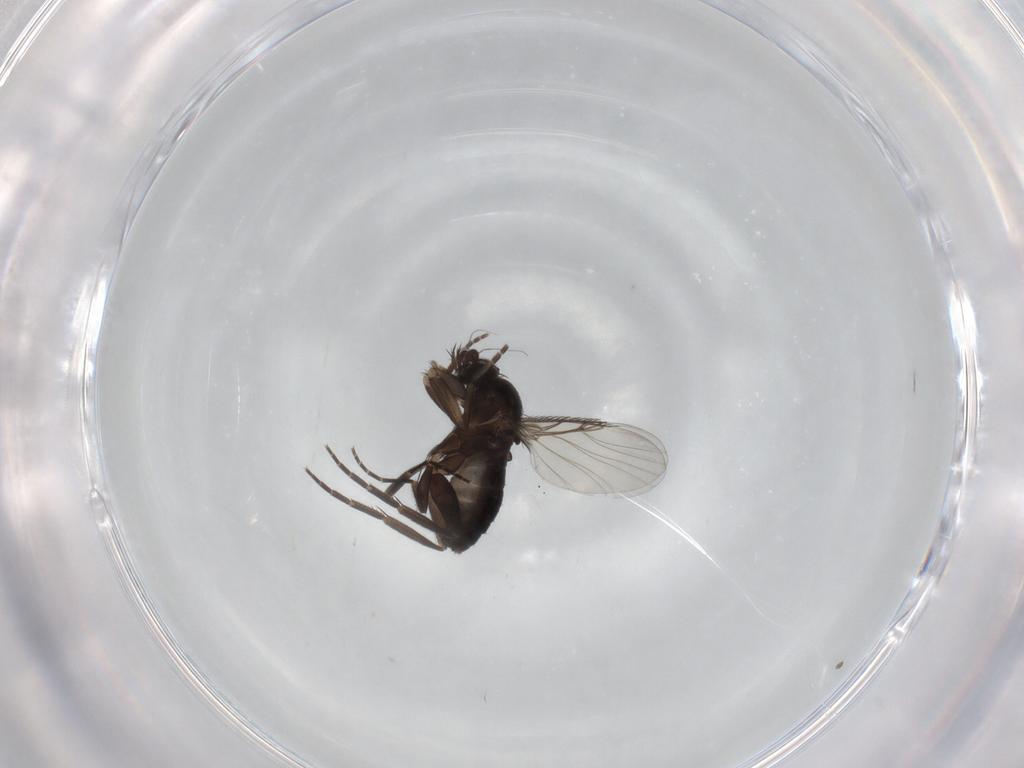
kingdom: Animalia
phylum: Arthropoda
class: Insecta
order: Diptera
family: Phoridae
